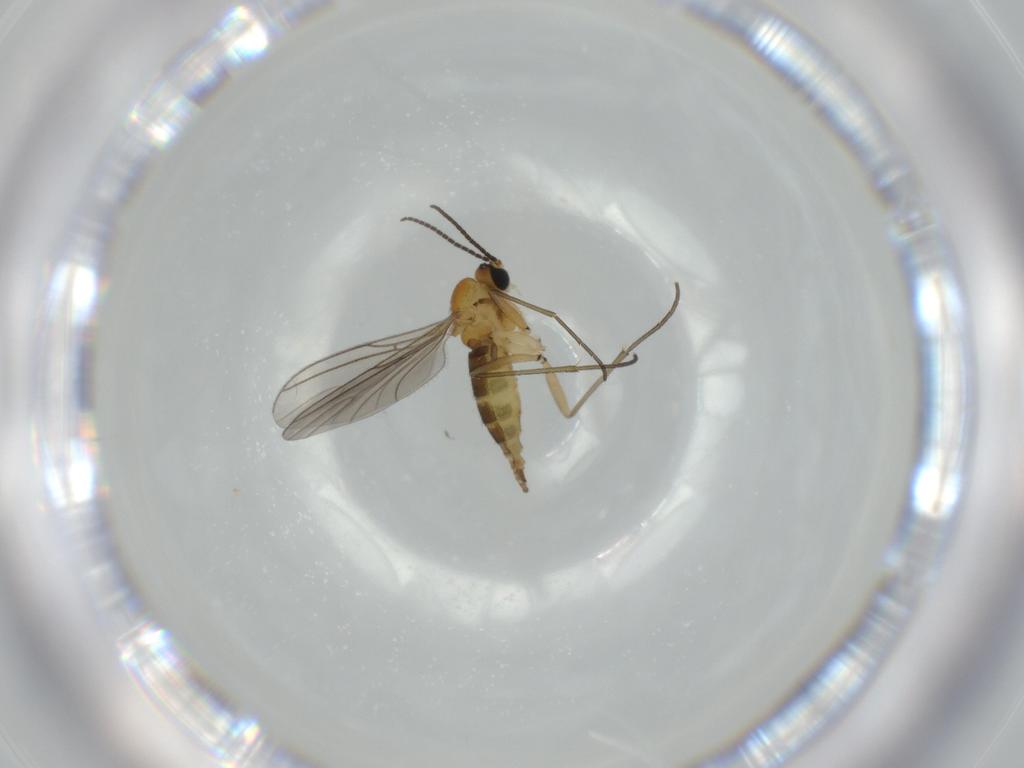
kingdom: Animalia
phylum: Arthropoda
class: Insecta
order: Diptera
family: Sciaridae
